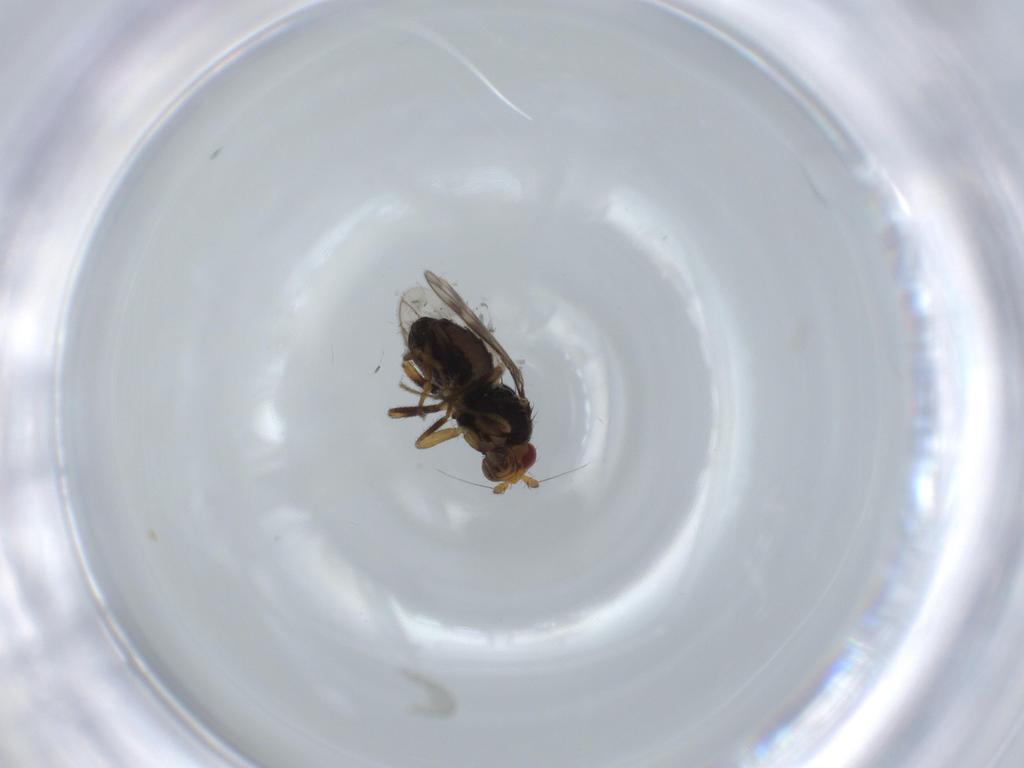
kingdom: Animalia
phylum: Arthropoda
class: Insecta
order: Diptera
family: Sphaeroceridae
